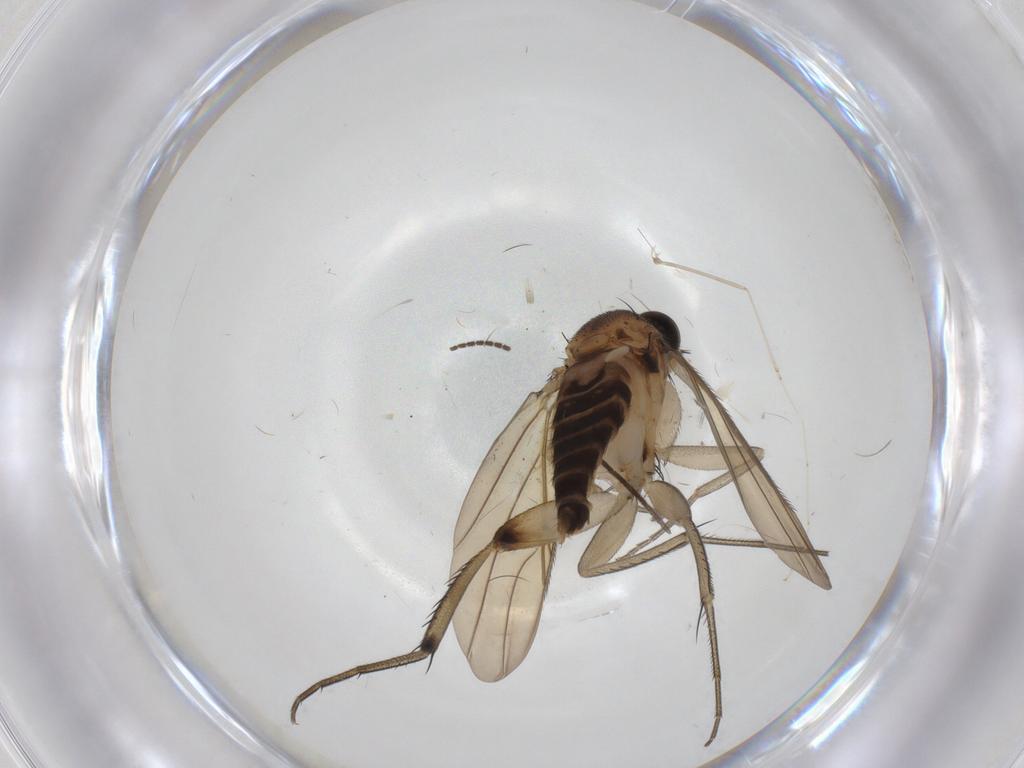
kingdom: Animalia
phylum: Arthropoda
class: Insecta
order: Diptera
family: Phoridae
